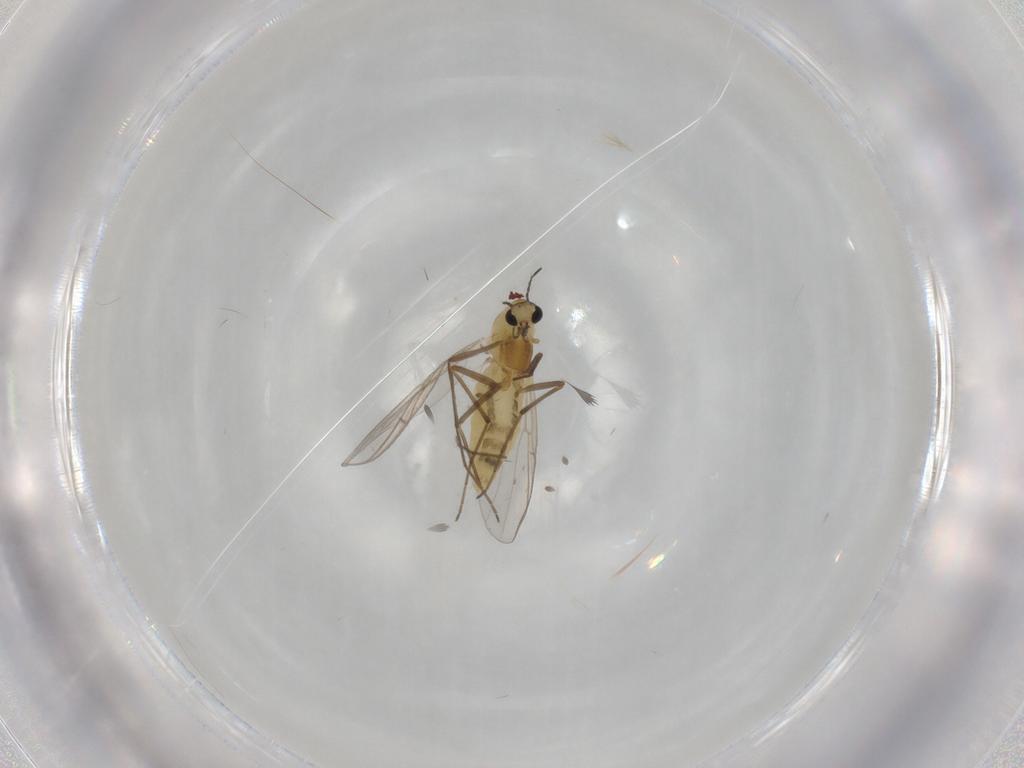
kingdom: Animalia
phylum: Arthropoda
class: Insecta
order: Diptera
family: Chironomidae
